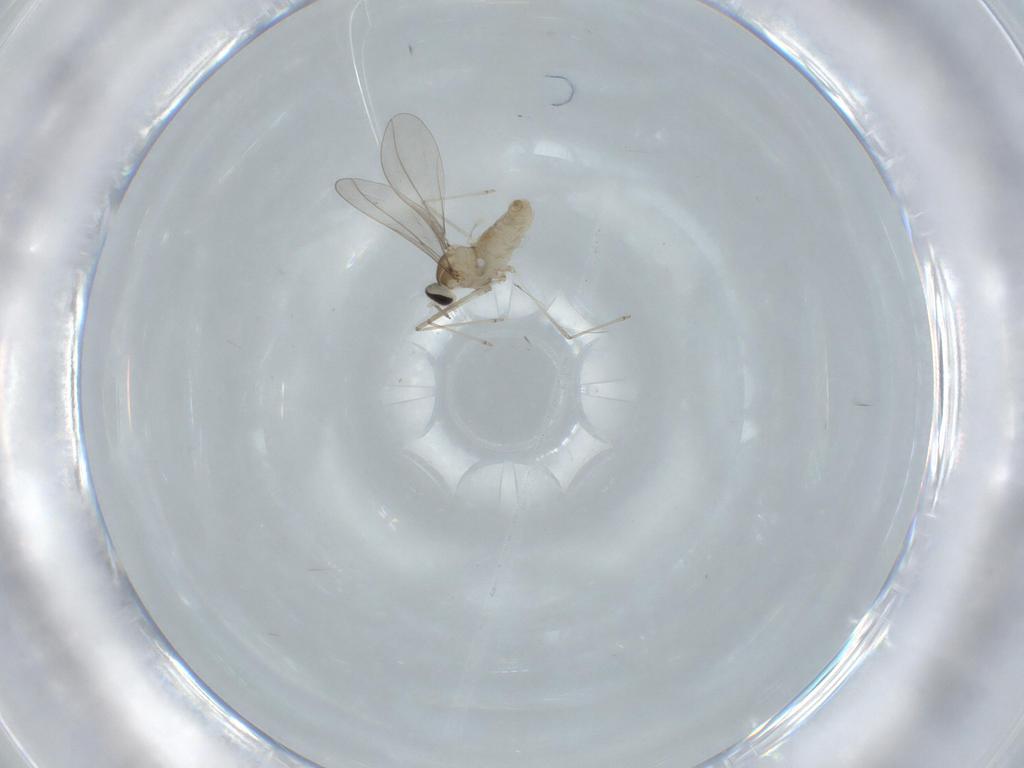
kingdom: Animalia
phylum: Arthropoda
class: Insecta
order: Diptera
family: Cecidomyiidae
